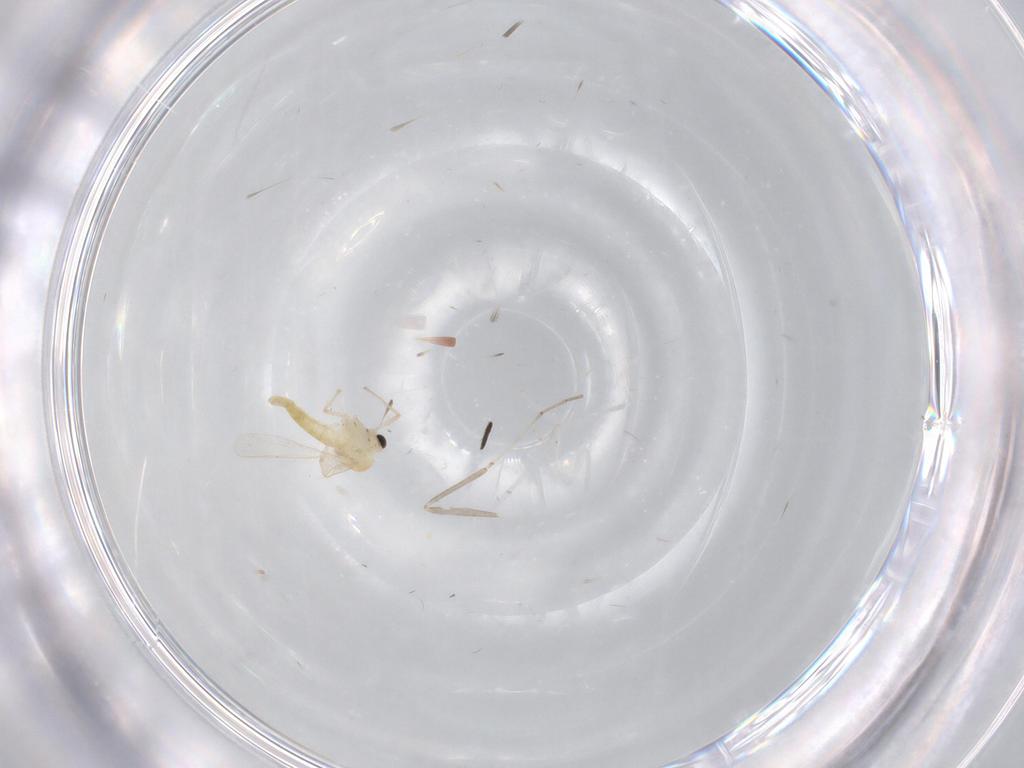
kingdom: Animalia
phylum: Arthropoda
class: Insecta
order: Diptera
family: Chironomidae
